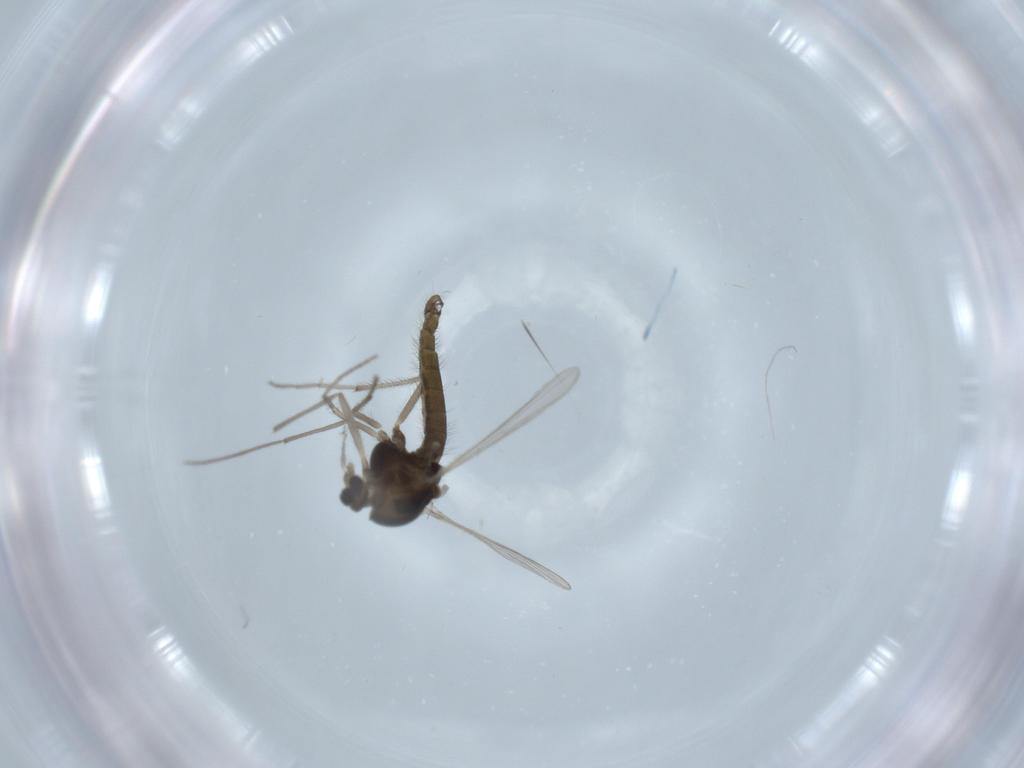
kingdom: Animalia
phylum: Arthropoda
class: Insecta
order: Diptera
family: Chironomidae
